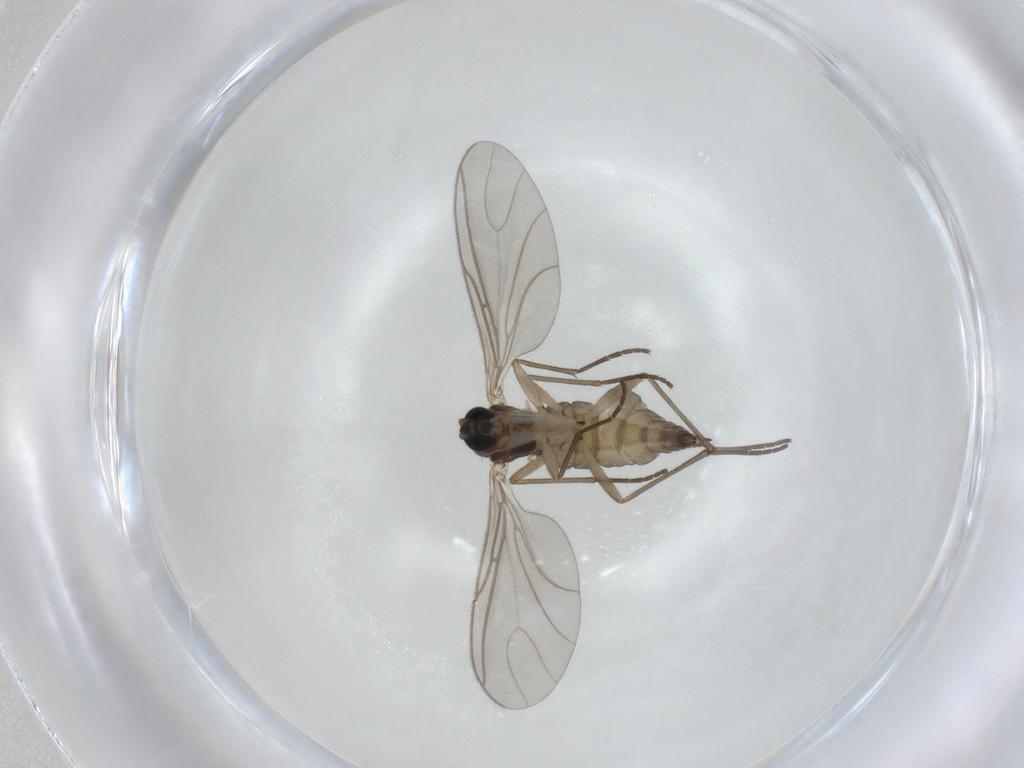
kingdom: Animalia
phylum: Arthropoda
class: Insecta
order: Diptera
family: Sciaridae
